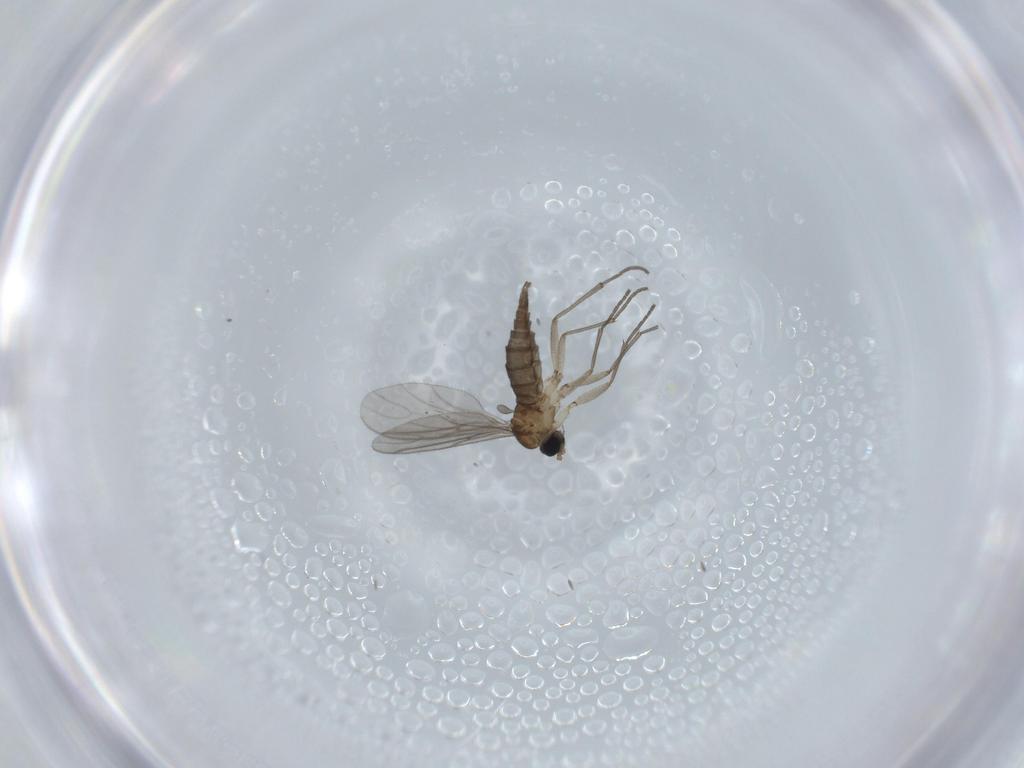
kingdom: Animalia
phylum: Arthropoda
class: Insecta
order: Diptera
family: Sciaridae
